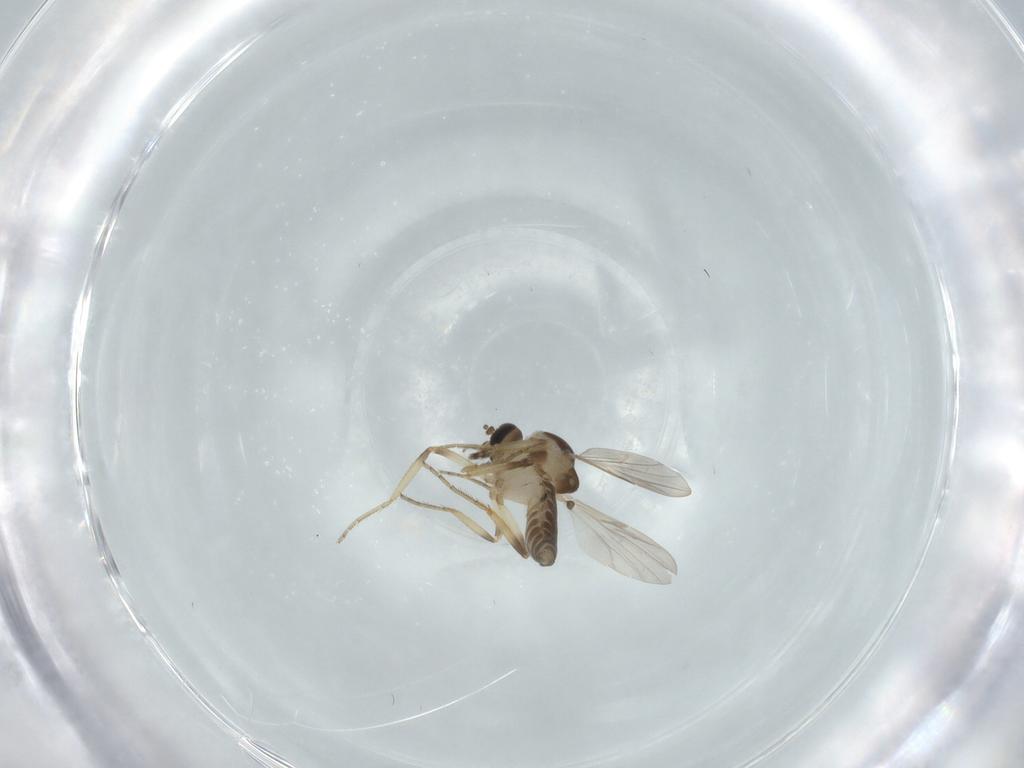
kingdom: Animalia
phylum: Arthropoda
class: Insecta
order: Diptera
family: Ceratopogonidae
